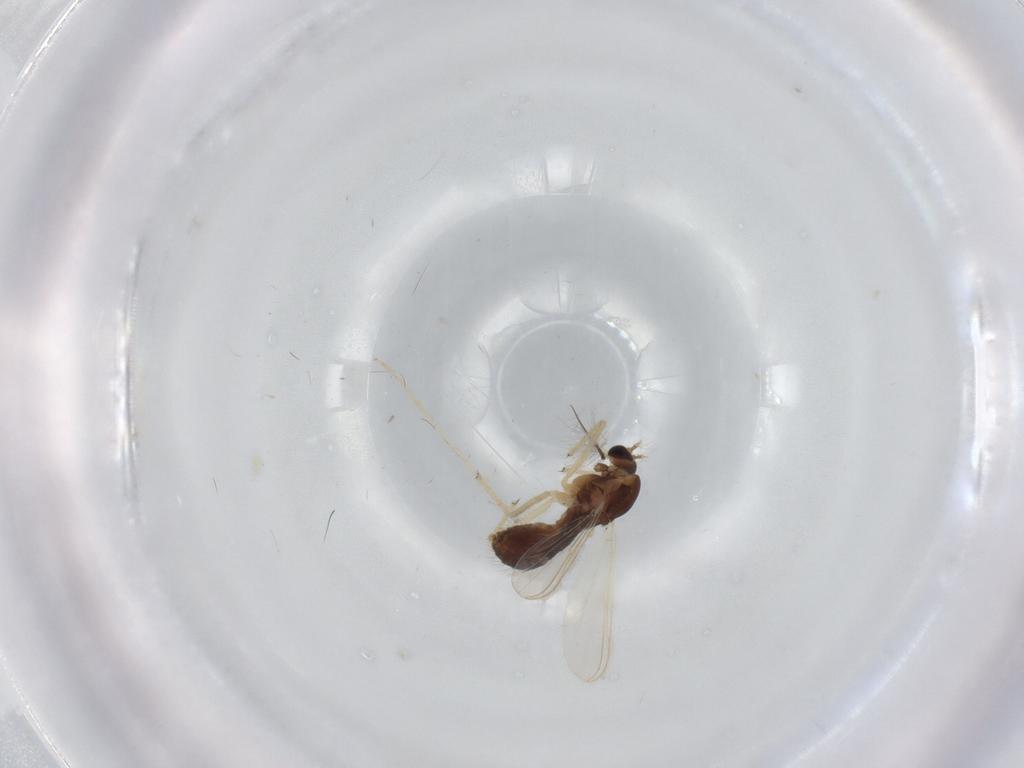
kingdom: Animalia
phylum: Arthropoda
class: Insecta
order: Diptera
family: Chironomidae
